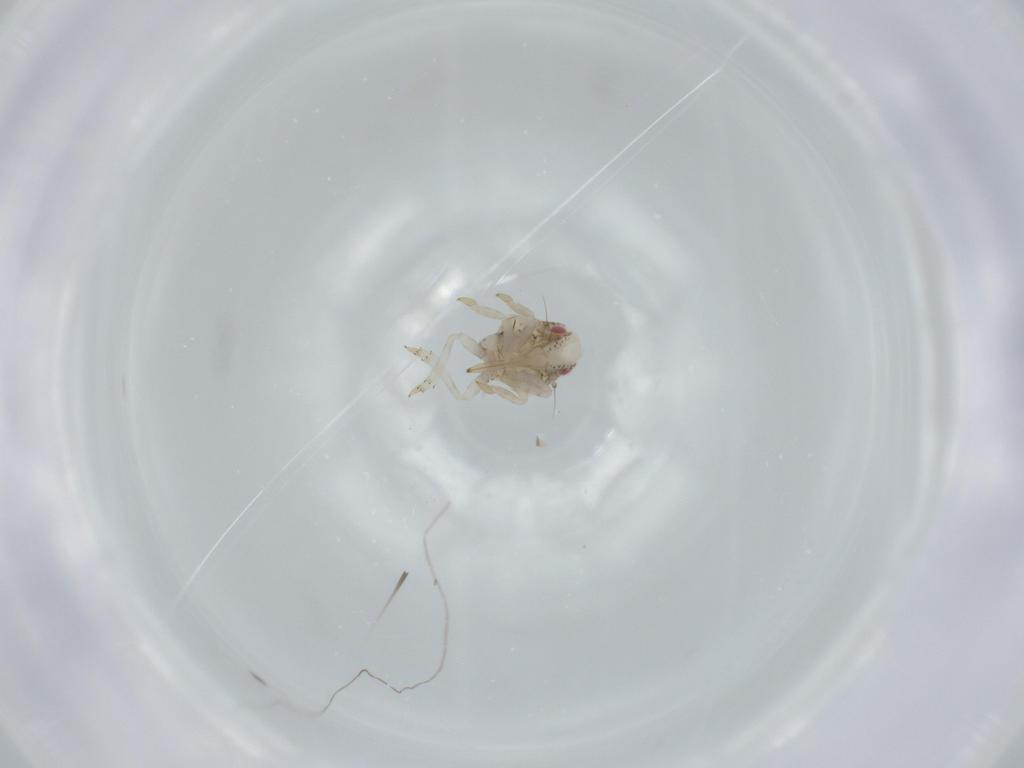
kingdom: Animalia
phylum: Arthropoda
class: Insecta
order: Hemiptera
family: Acanaloniidae
